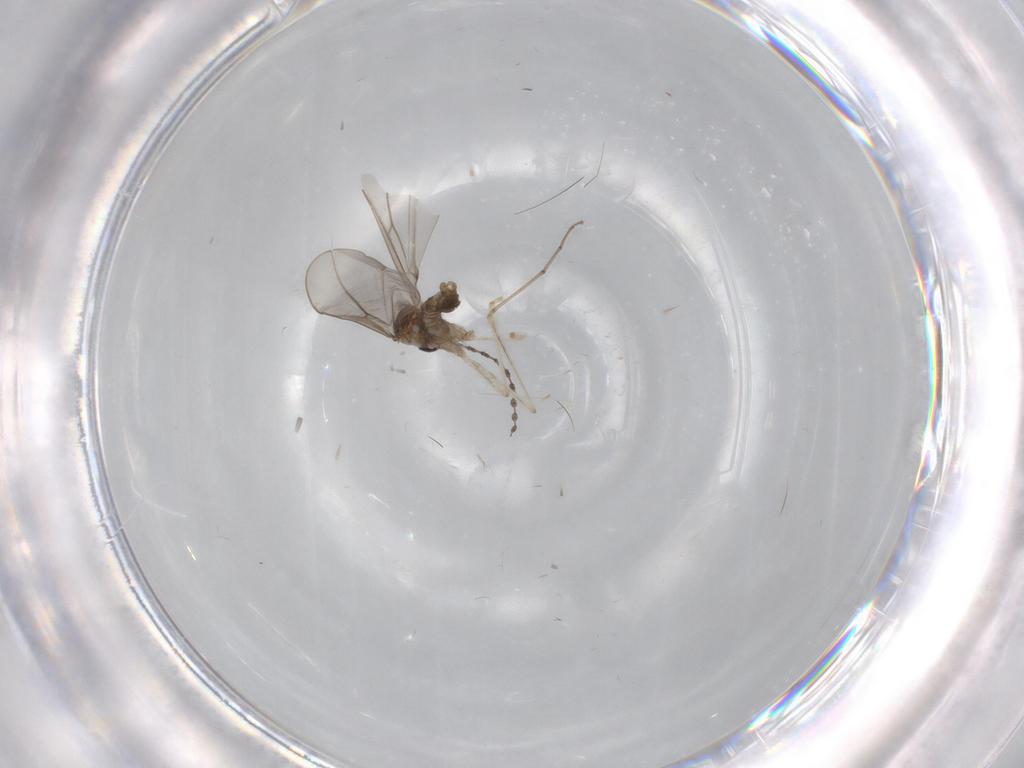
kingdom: Animalia
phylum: Arthropoda
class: Insecta
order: Diptera
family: Cecidomyiidae
